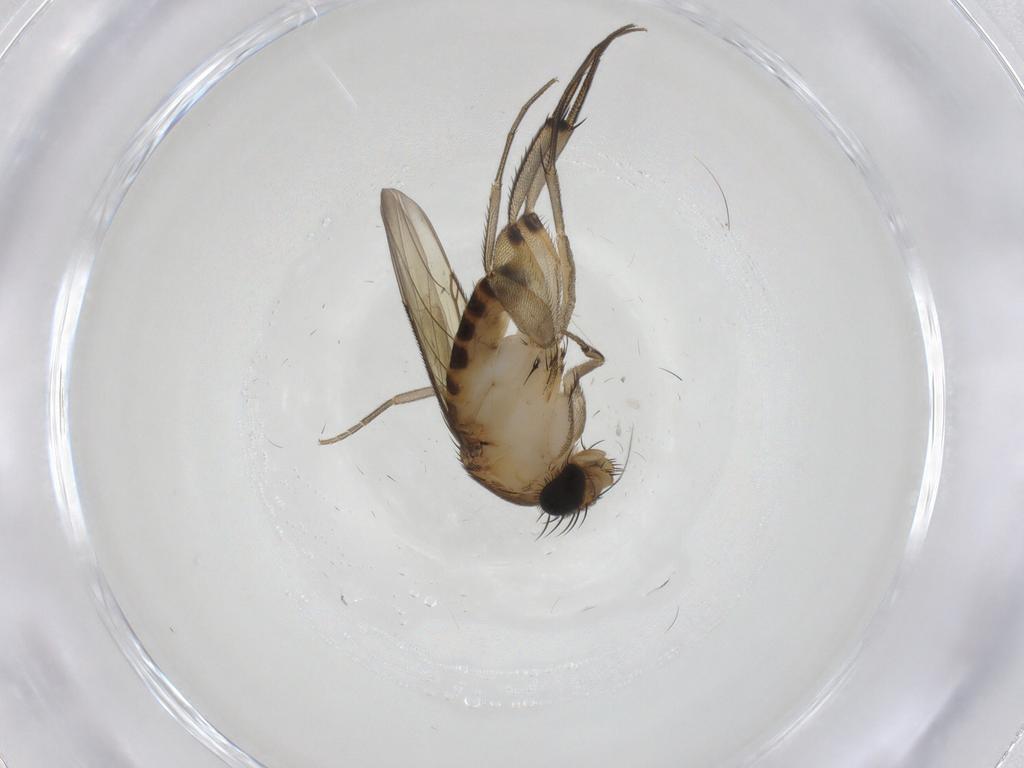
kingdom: Animalia
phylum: Arthropoda
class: Insecta
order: Diptera
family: Phoridae
